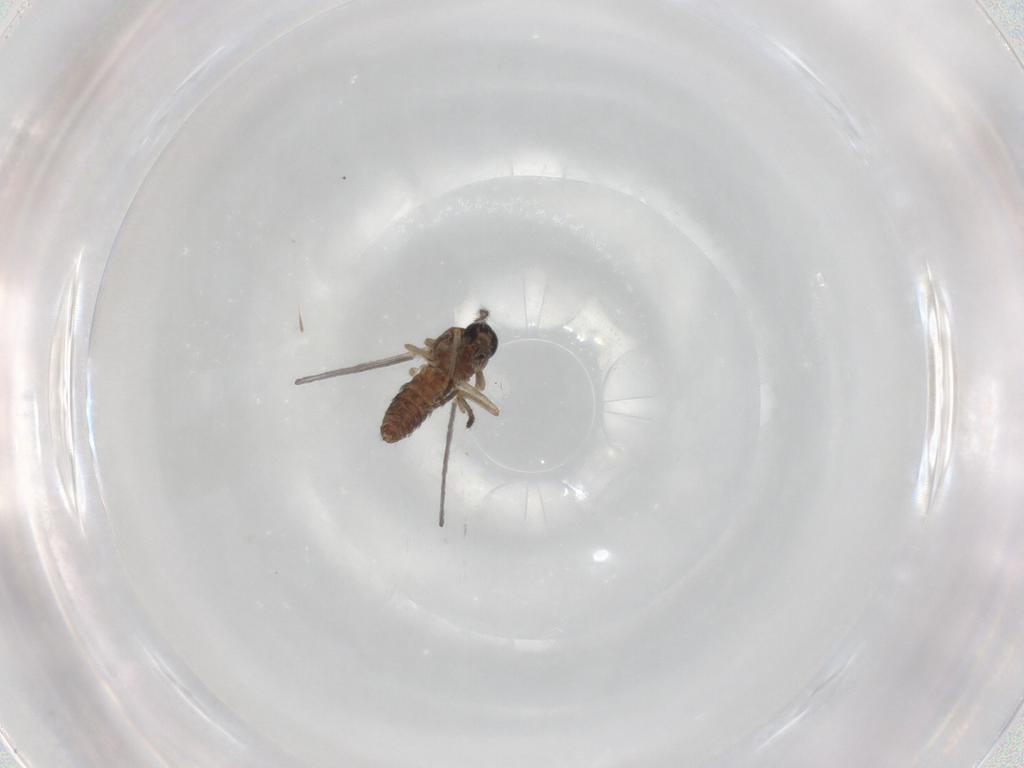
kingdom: Animalia
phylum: Arthropoda
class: Insecta
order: Diptera
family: Ceratopogonidae
